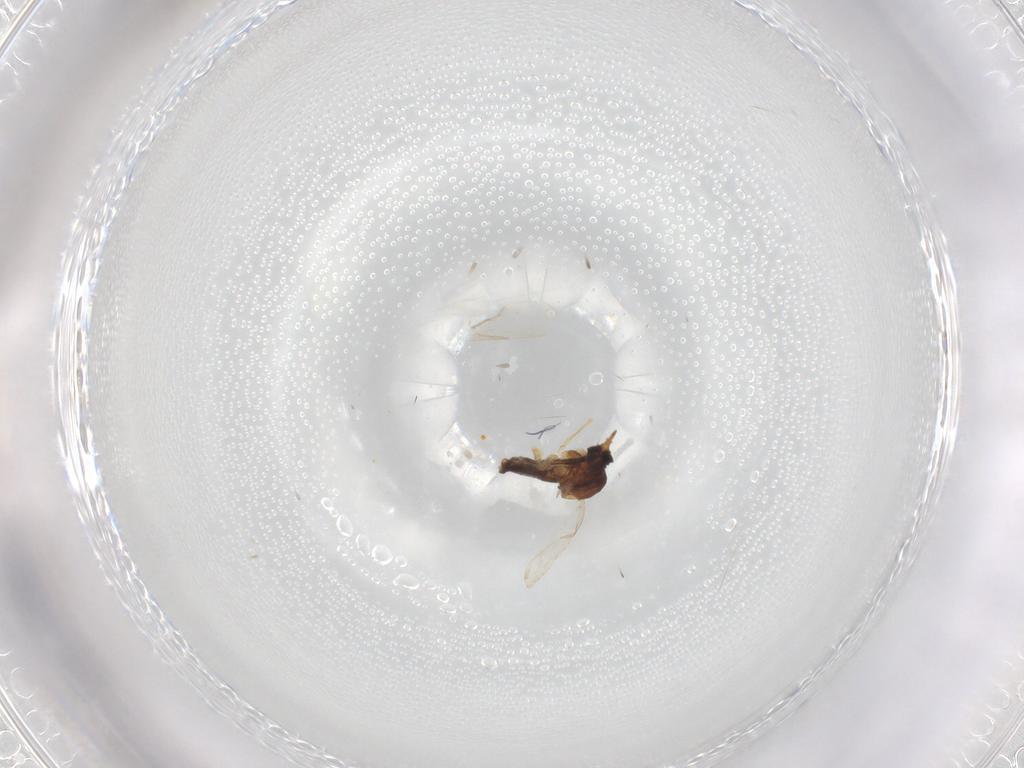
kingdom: Animalia
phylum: Arthropoda
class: Insecta
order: Diptera
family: Ceratopogonidae
